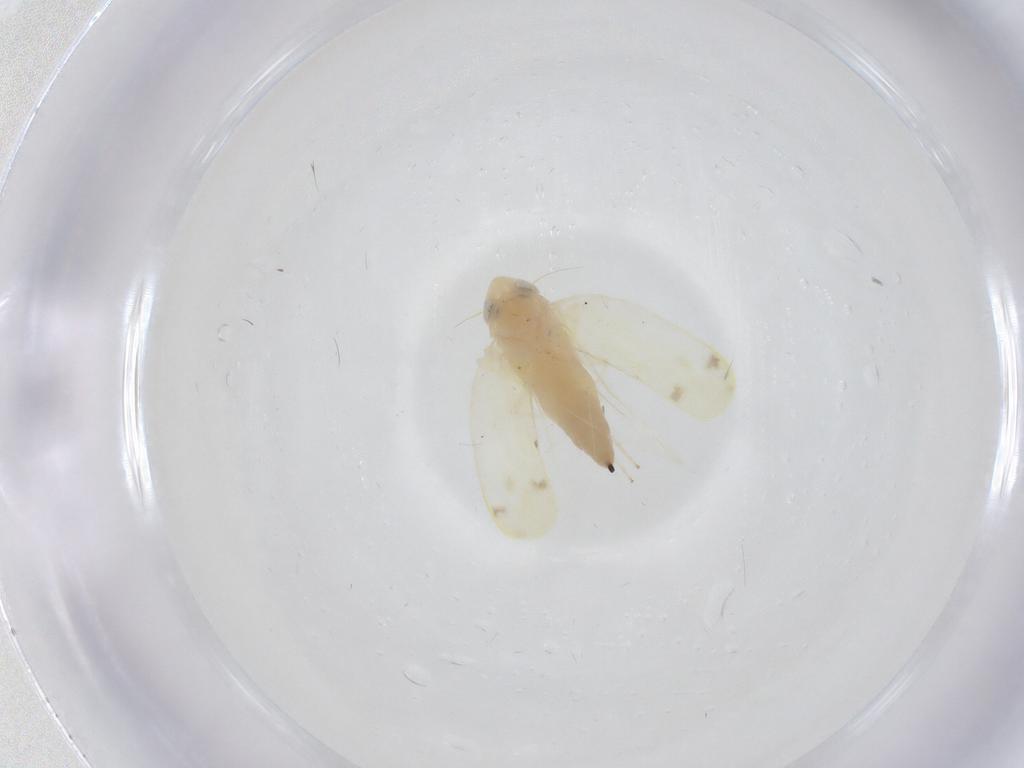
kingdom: Animalia
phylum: Arthropoda
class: Insecta
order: Hemiptera
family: Cicadellidae
